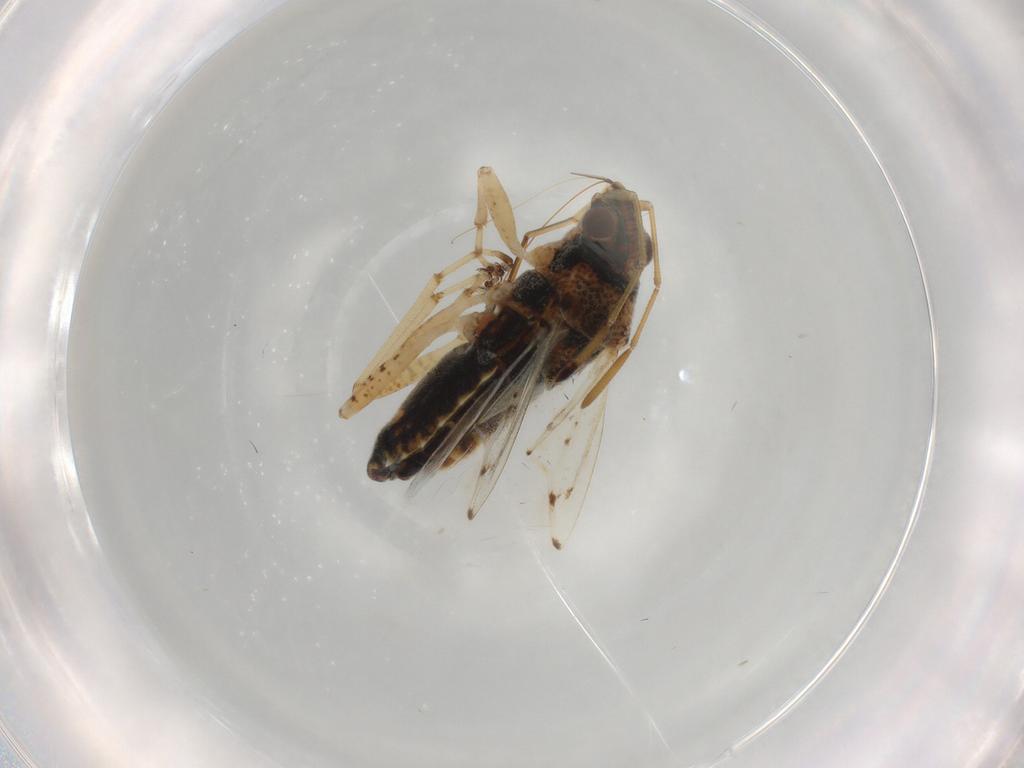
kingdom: Animalia
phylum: Arthropoda
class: Insecta
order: Hemiptera
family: Lygaeidae
